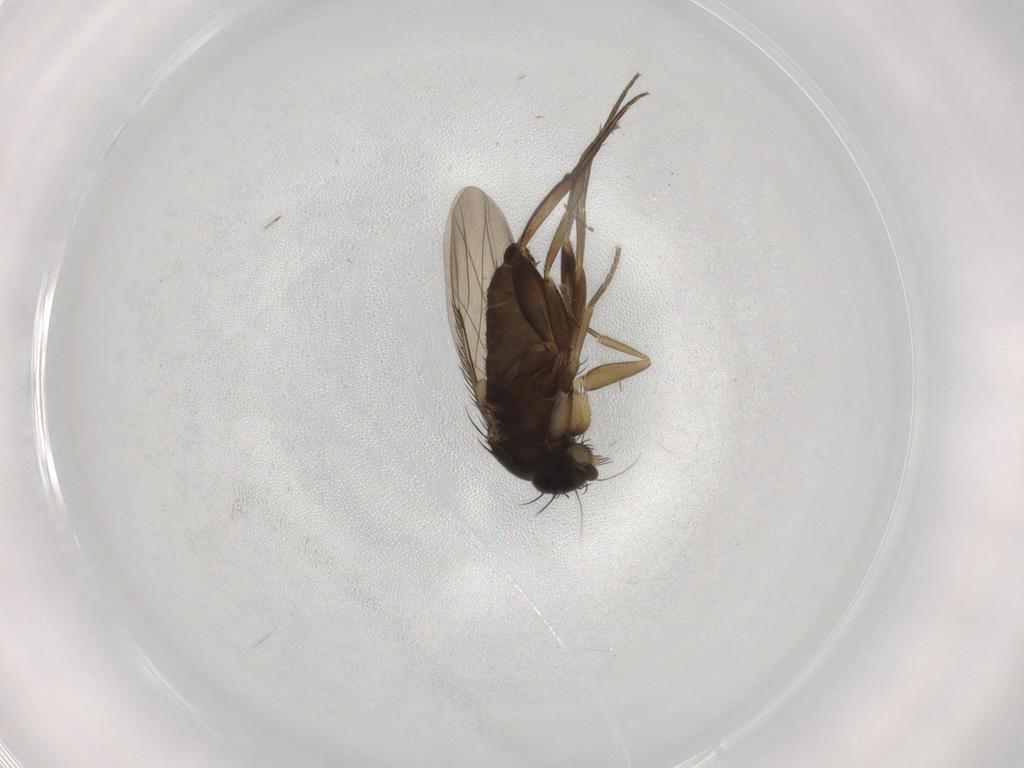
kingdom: Animalia
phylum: Arthropoda
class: Insecta
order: Diptera
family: Phoridae
